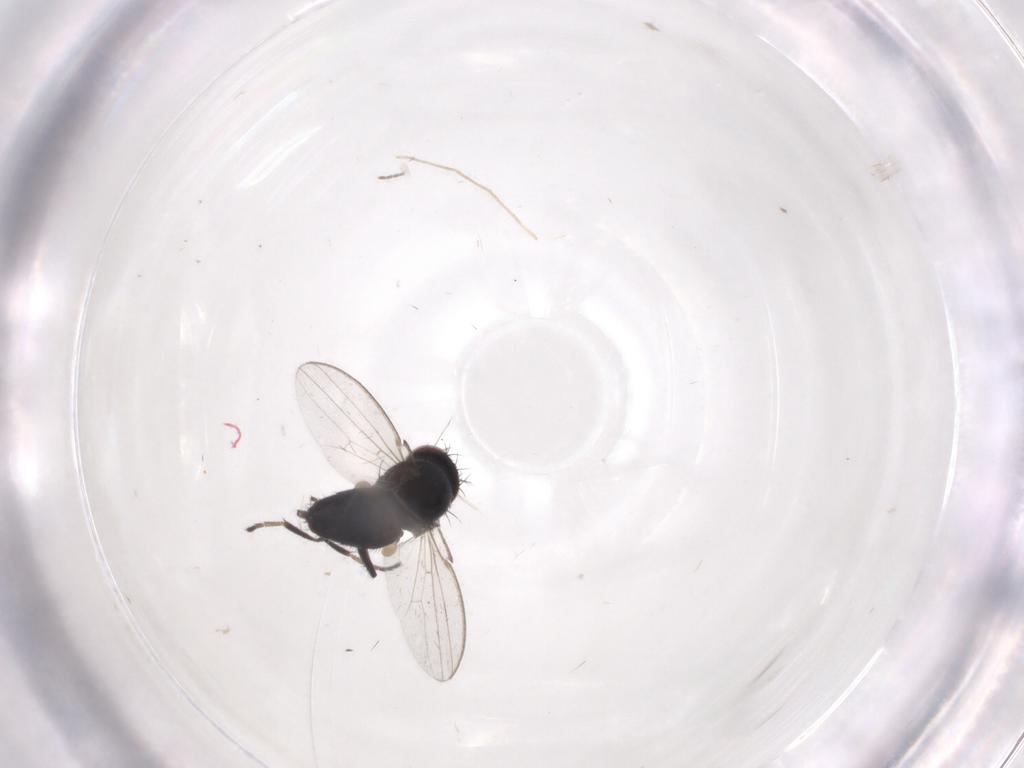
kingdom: Animalia
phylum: Arthropoda
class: Insecta
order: Diptera
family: Milichiidae
